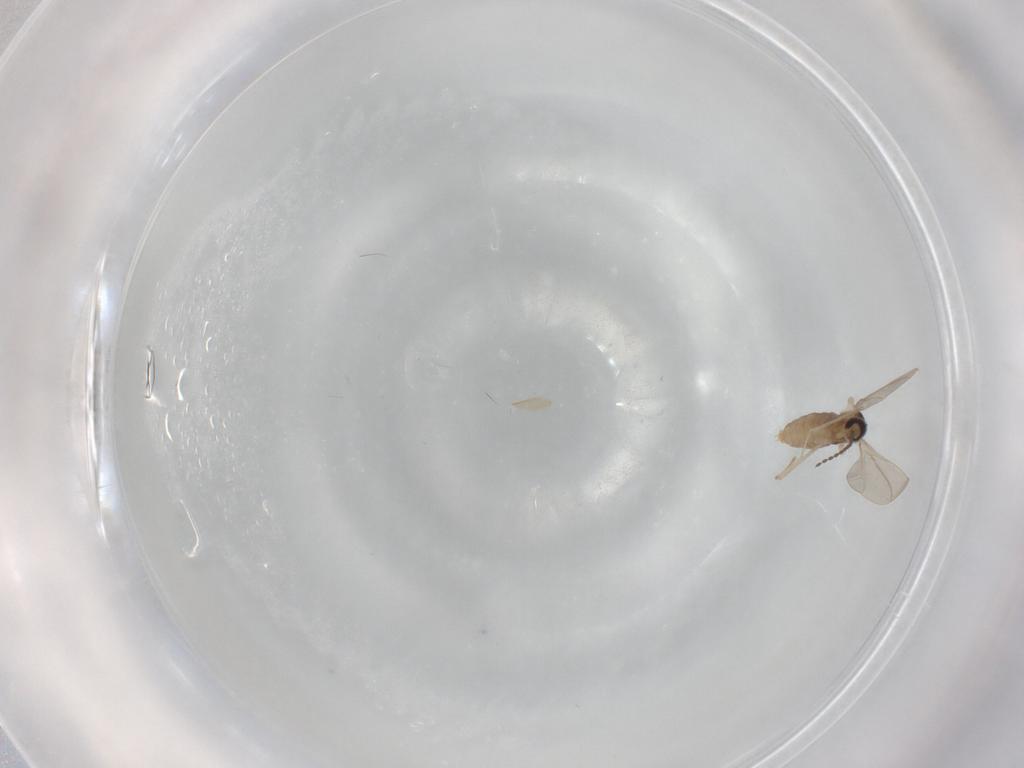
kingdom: Animalia
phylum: Arthropoda
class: Insecta
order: Diptera
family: Cecidomyiidae
